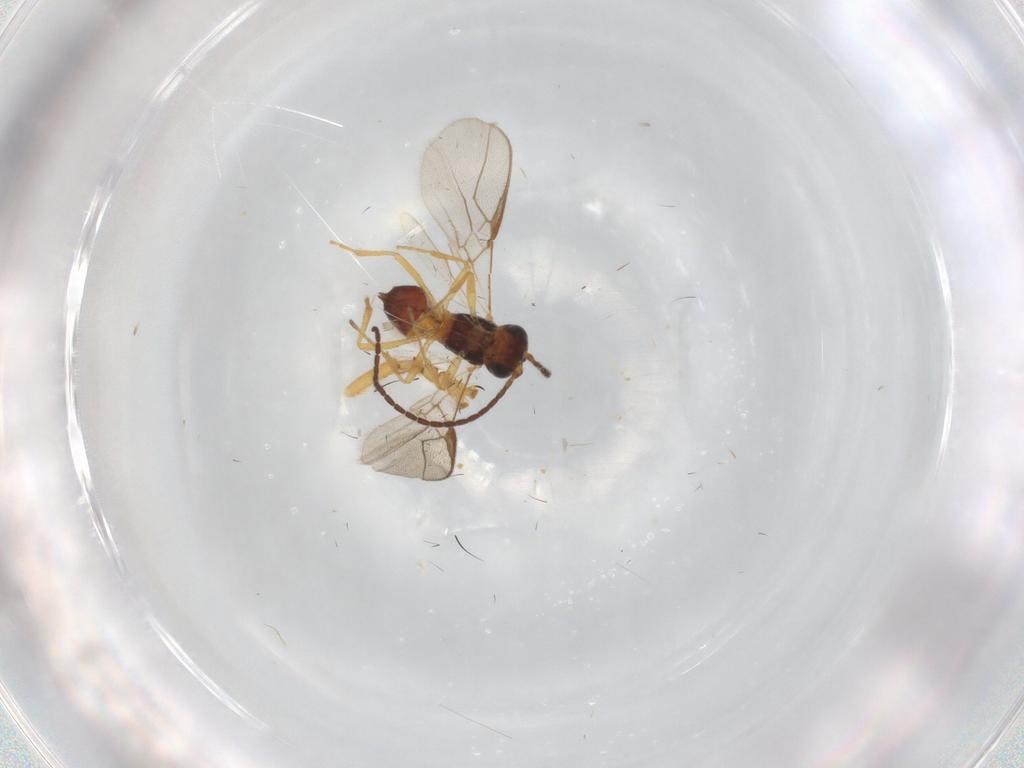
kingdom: Animalia
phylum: Arthropoda
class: Insecta
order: Hymenoptera
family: Braconidae
